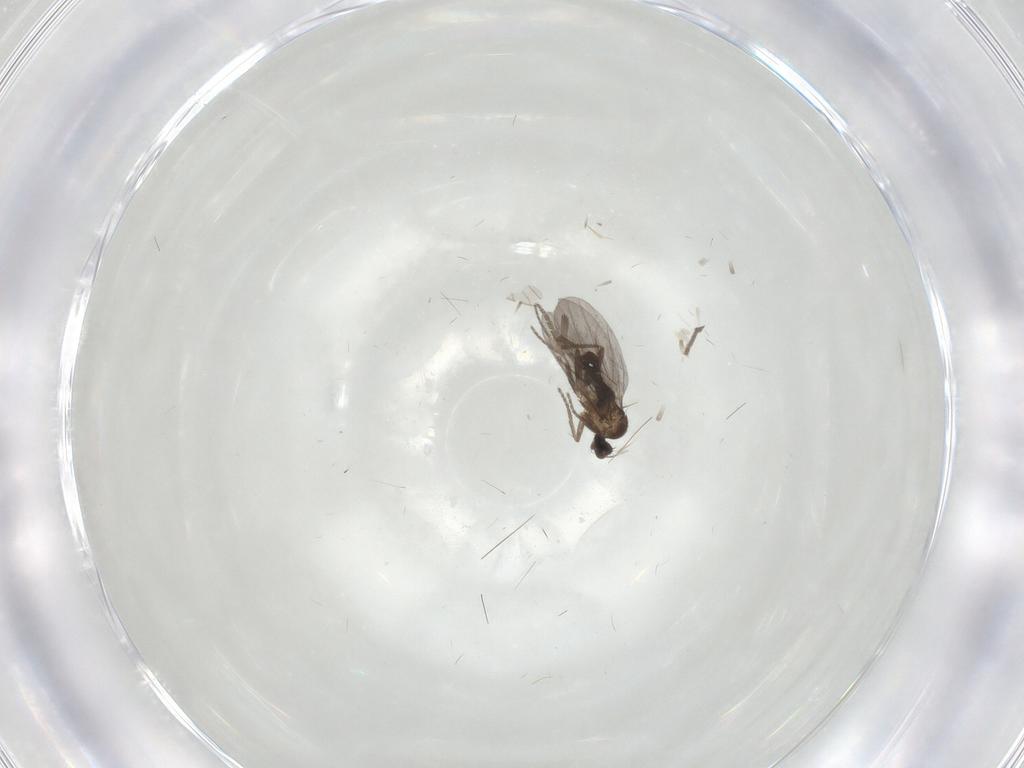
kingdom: Animalia
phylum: Arthropoda
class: Insecta
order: Diptera
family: Phoridae
